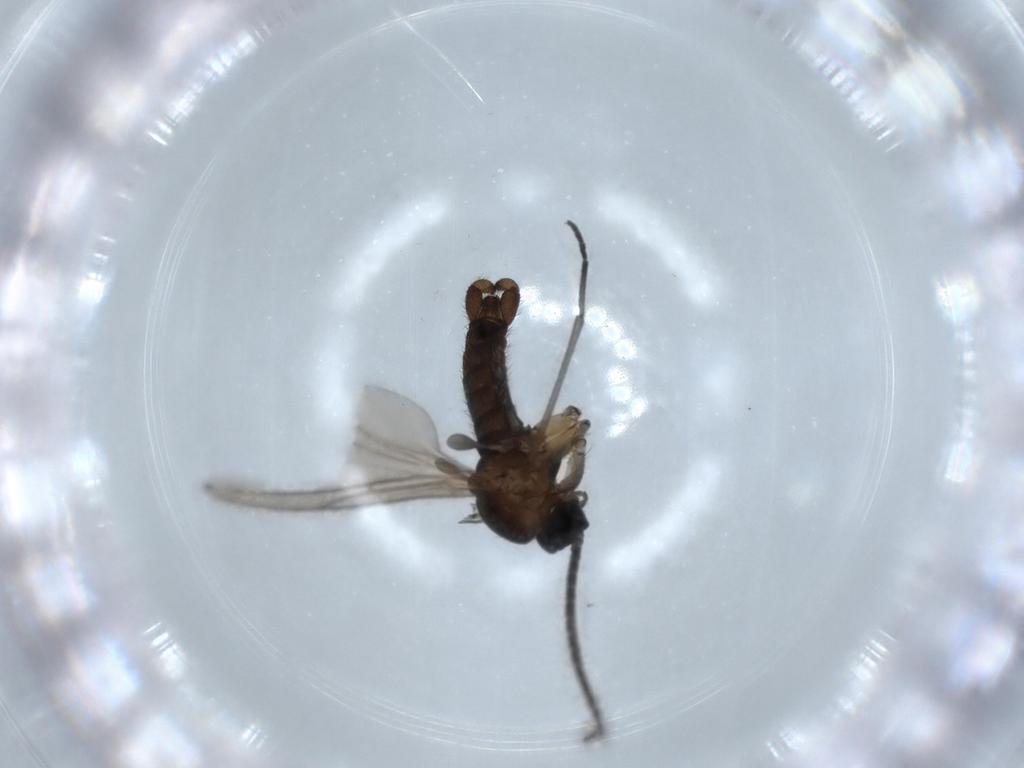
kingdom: Animalia
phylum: Arthropoda
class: Insecta
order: Diptera
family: Sciaridae
